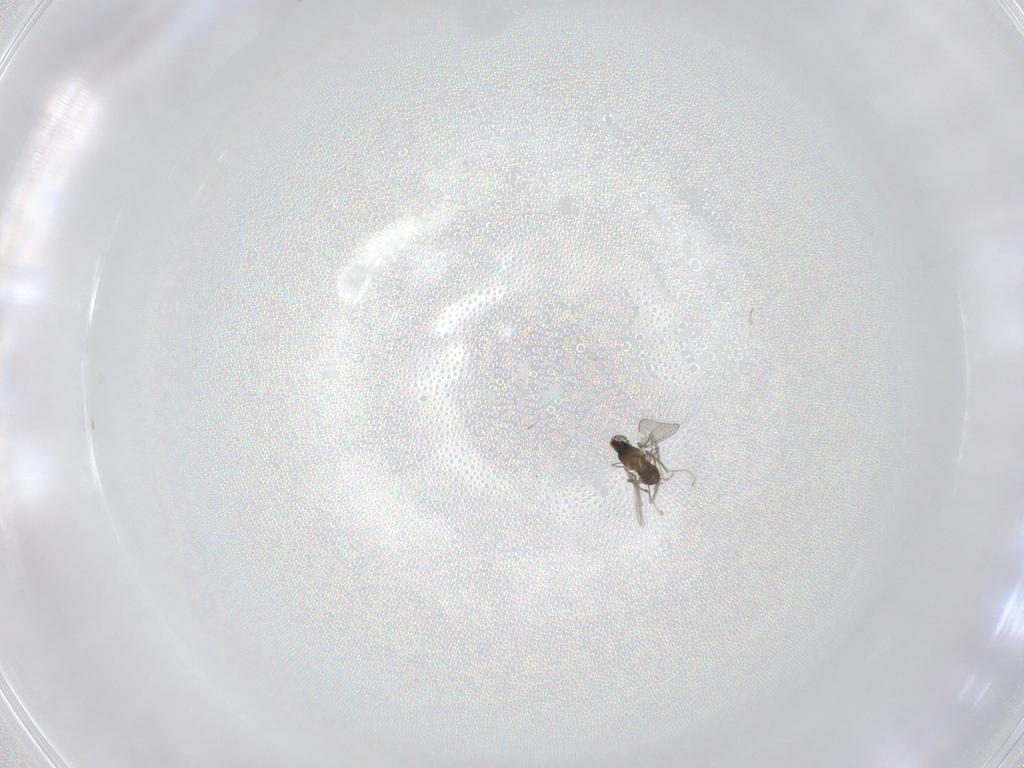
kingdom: Animalia
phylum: Arthropoda
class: Insecta
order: Diptera
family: Cecidomyiidae
